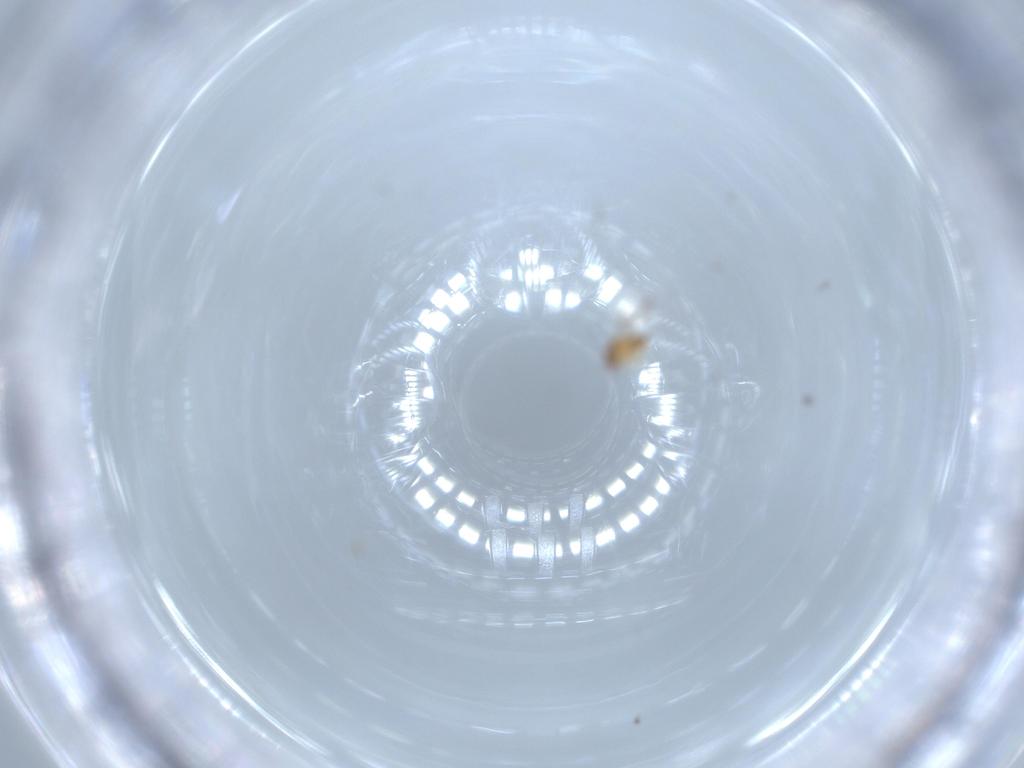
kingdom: Animalia
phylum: Arthropoda
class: Insecta
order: Hymenoptera
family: Trichogrammatidae
